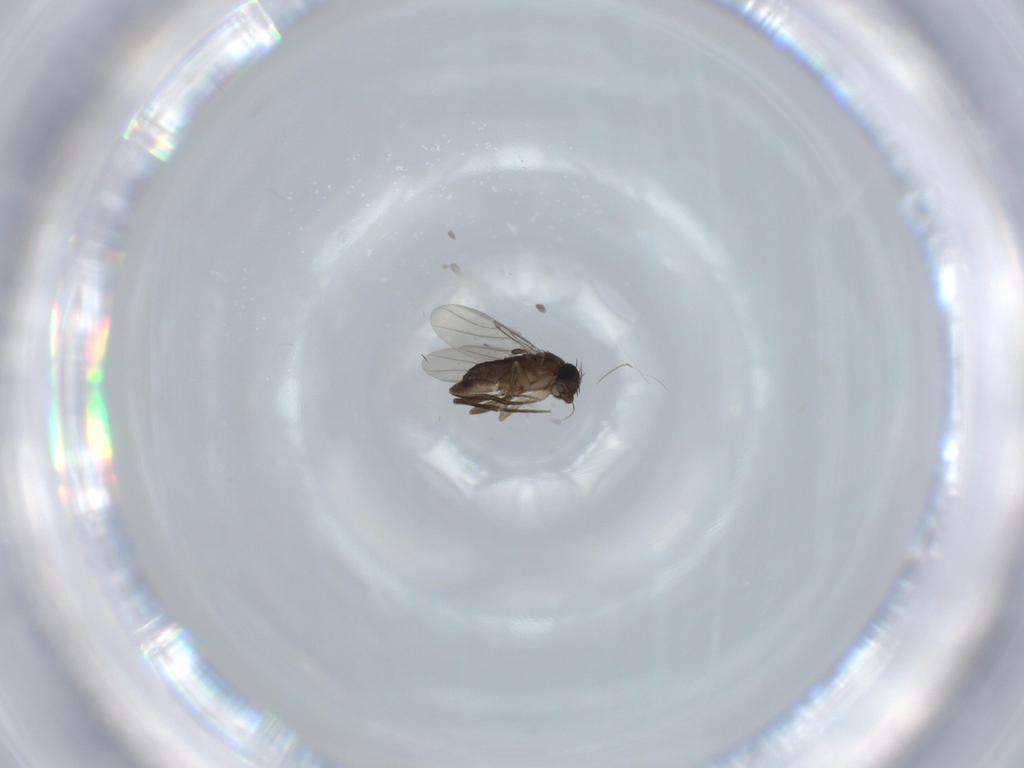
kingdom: Animalia
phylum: Arthropoda
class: Insecta
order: Diptera
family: Phoridae
